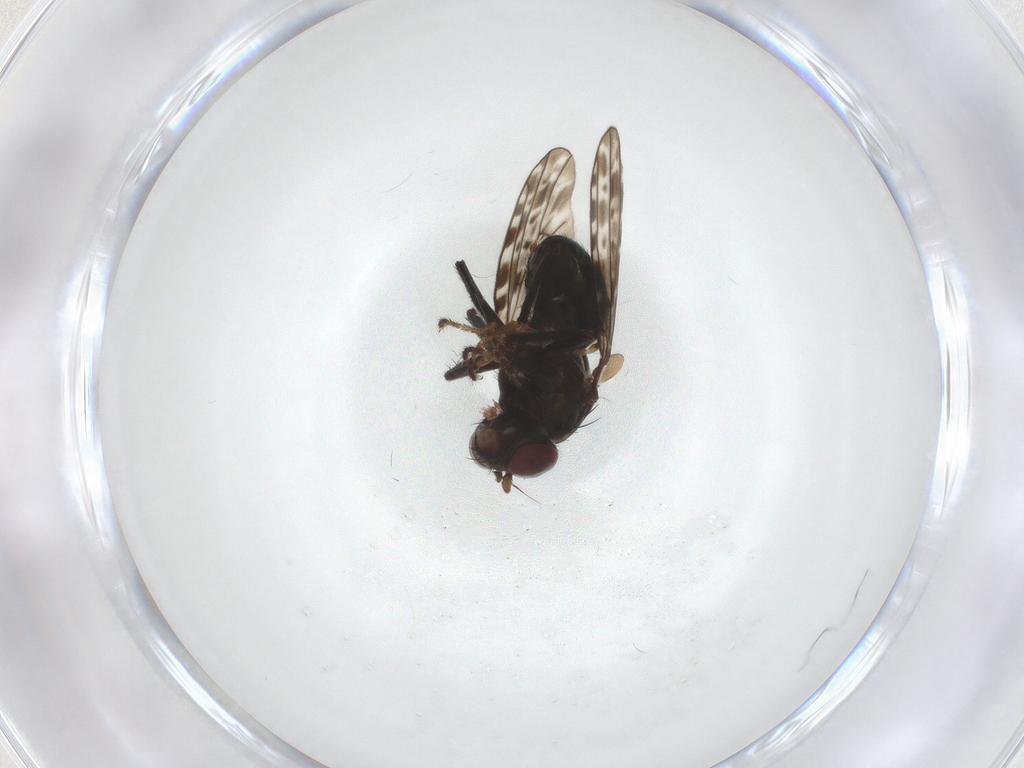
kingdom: Animalia
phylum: Arthropoda
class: Insecta
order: Diptera
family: Ephydridae
